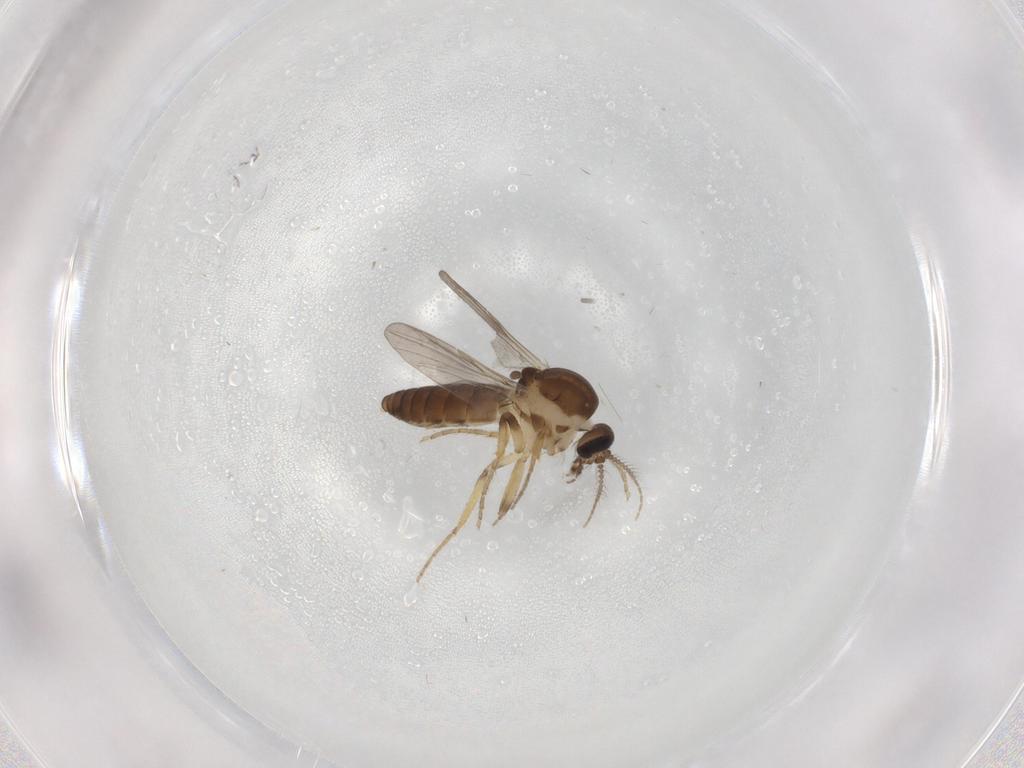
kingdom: Animalia
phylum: Arthropoda
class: Insecta
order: Diptera
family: Ceratopogonidae
